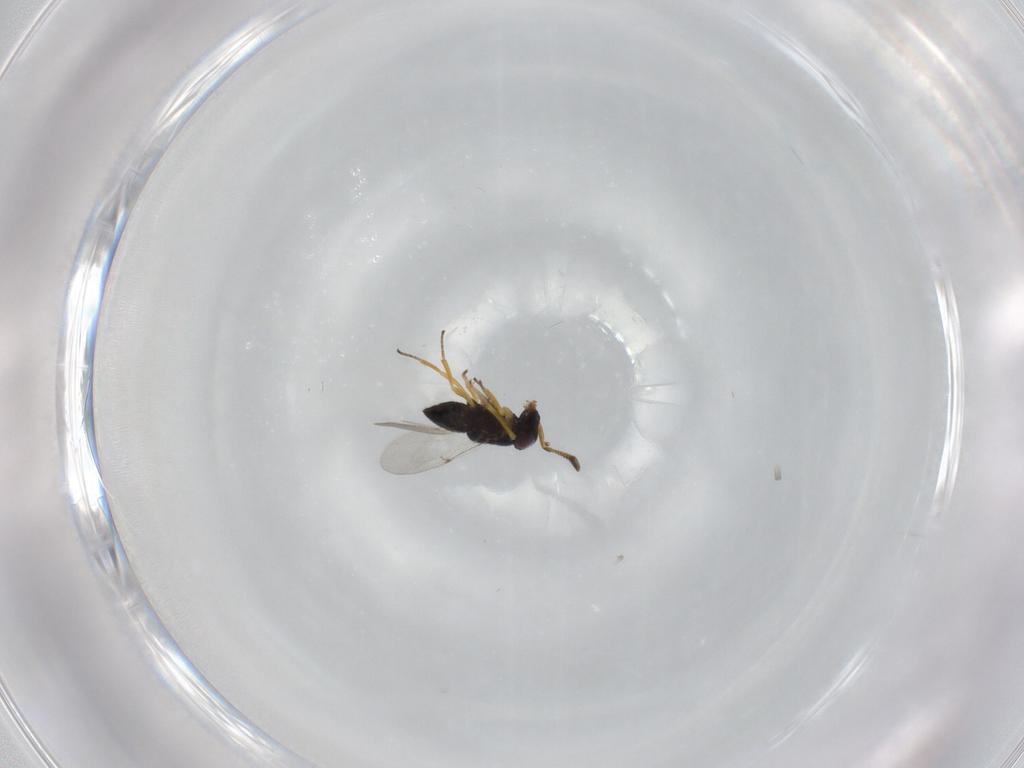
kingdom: Animalia
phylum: Arthropoda
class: Insecta
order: Hymenoptera
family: Encyrtidae
